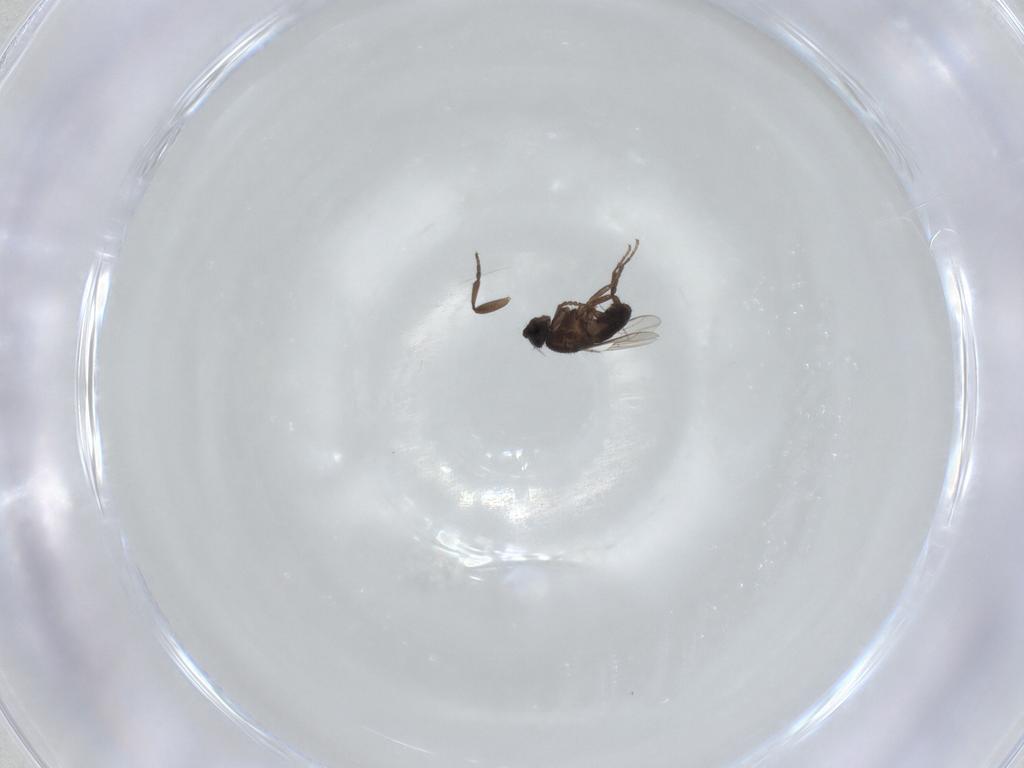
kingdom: Animalia
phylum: Arthropoda
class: Insecta
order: Diptera
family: Sphaeroceridae
